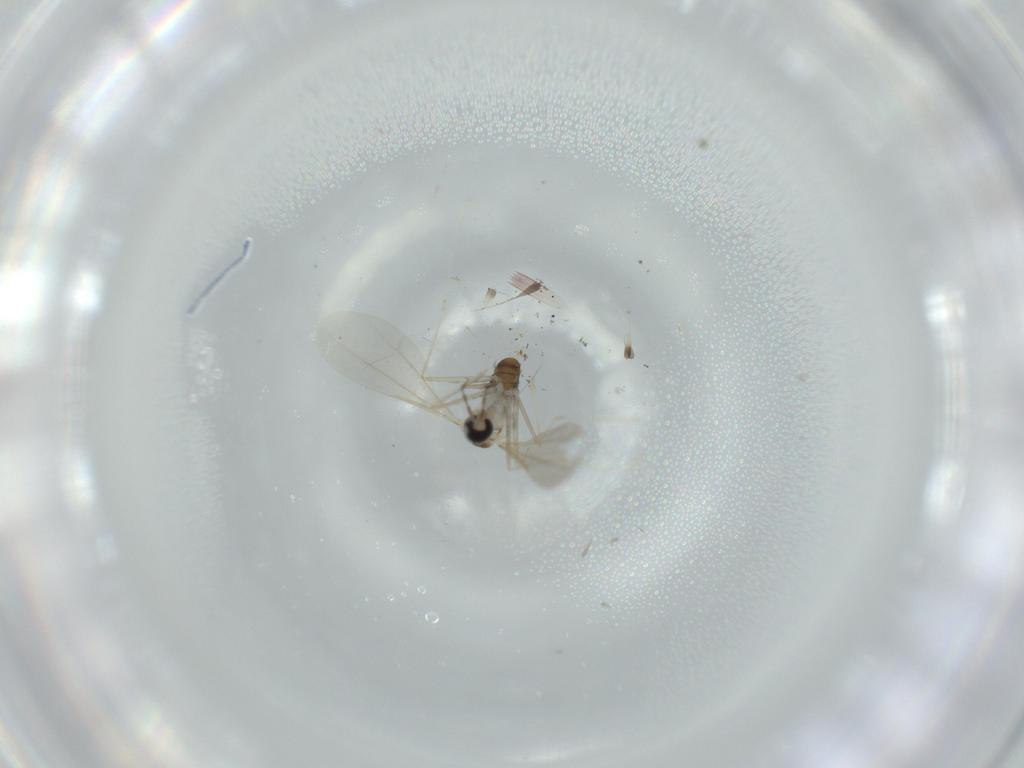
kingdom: Animalia
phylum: Arthropoda
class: Insecta
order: Diptera
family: Cecidomyiidae
